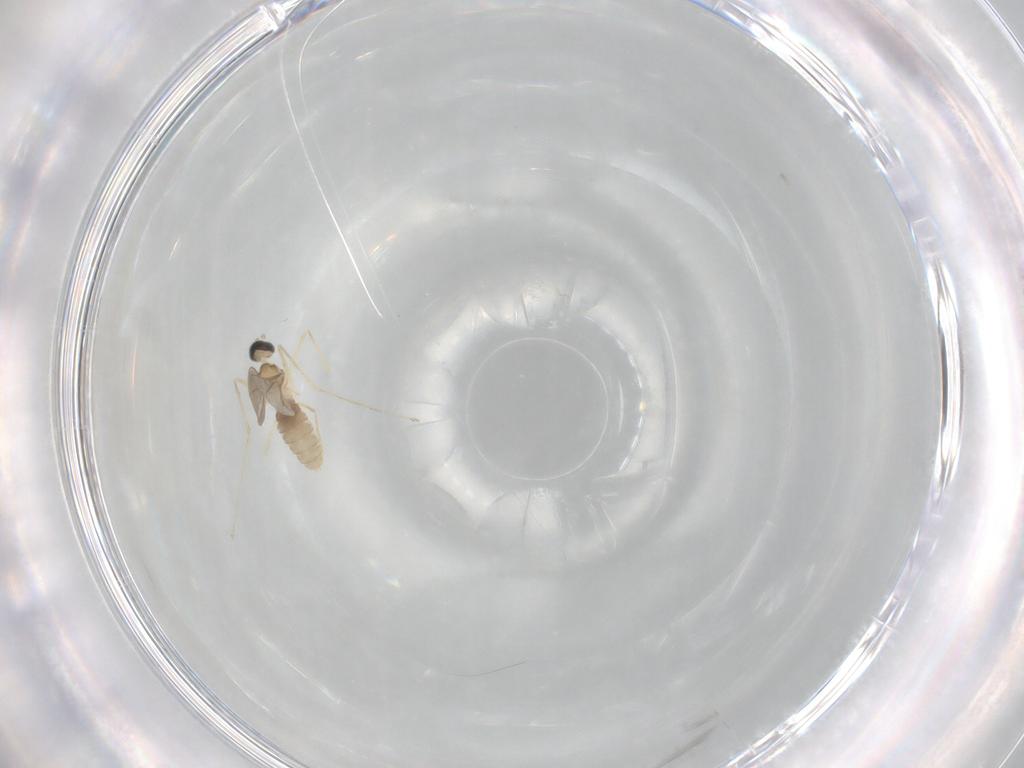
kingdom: Animalia
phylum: Arthropoda
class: Insecta
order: Diptera
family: Cecidomyiidae
